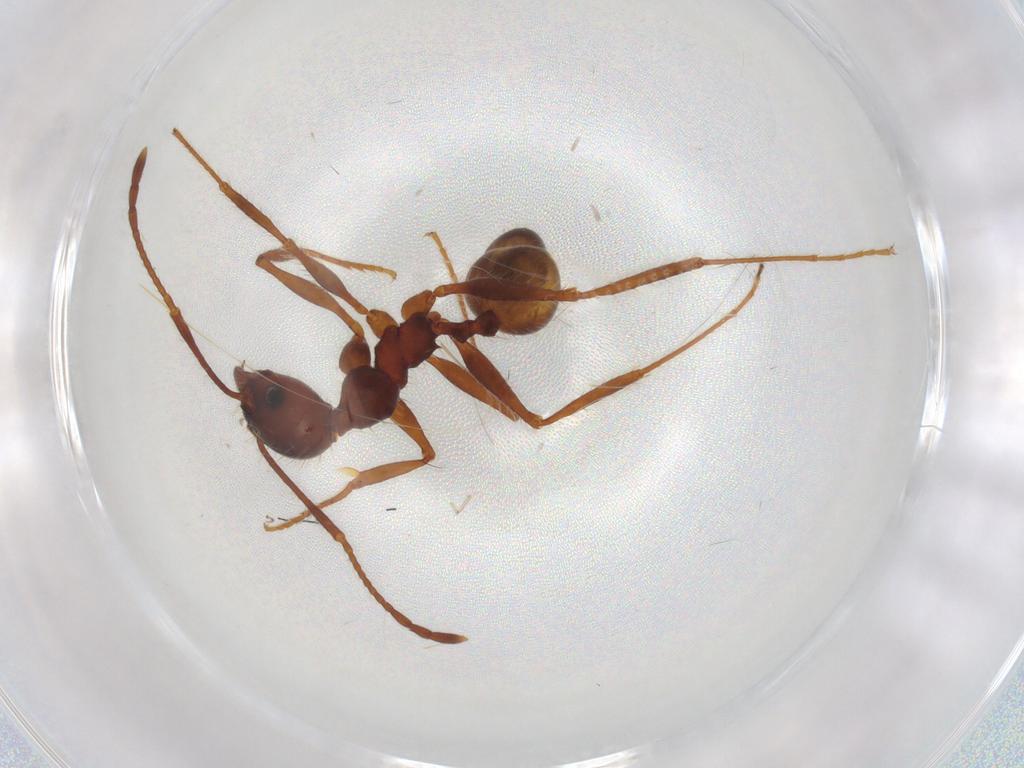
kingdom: Animalia
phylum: Arthropoda
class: Insecta
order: Hymenoptera
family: Formicidae
